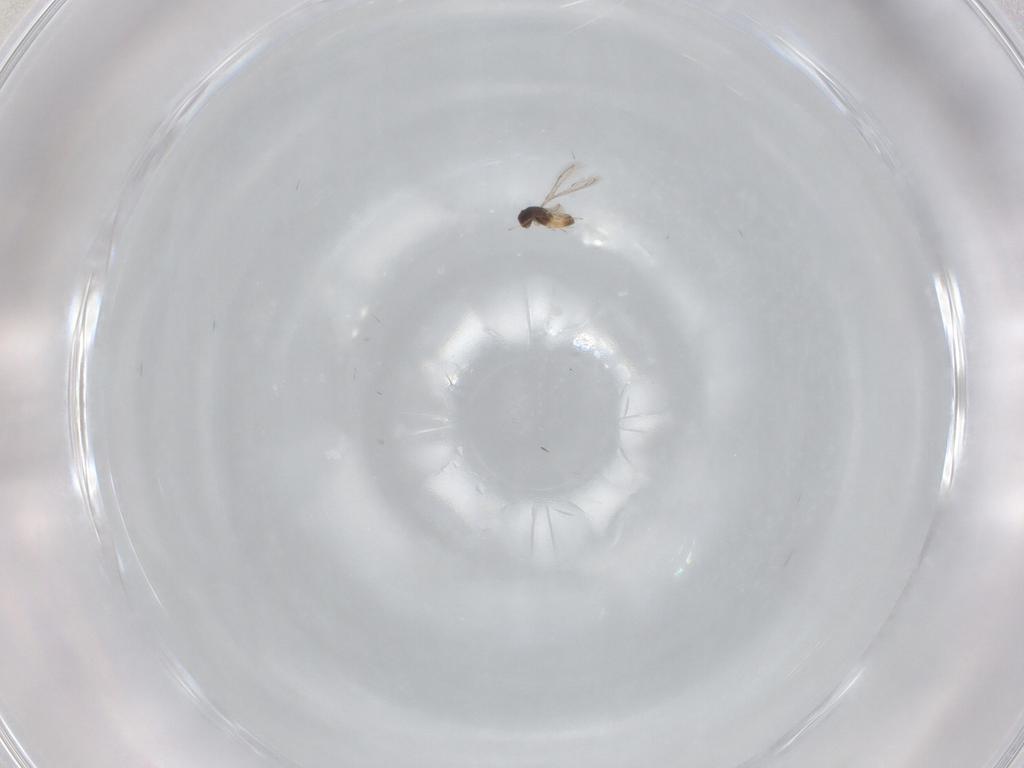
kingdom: Animalia
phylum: Arthropoda
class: Insecta
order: Hymenoptera
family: Mymaridae
